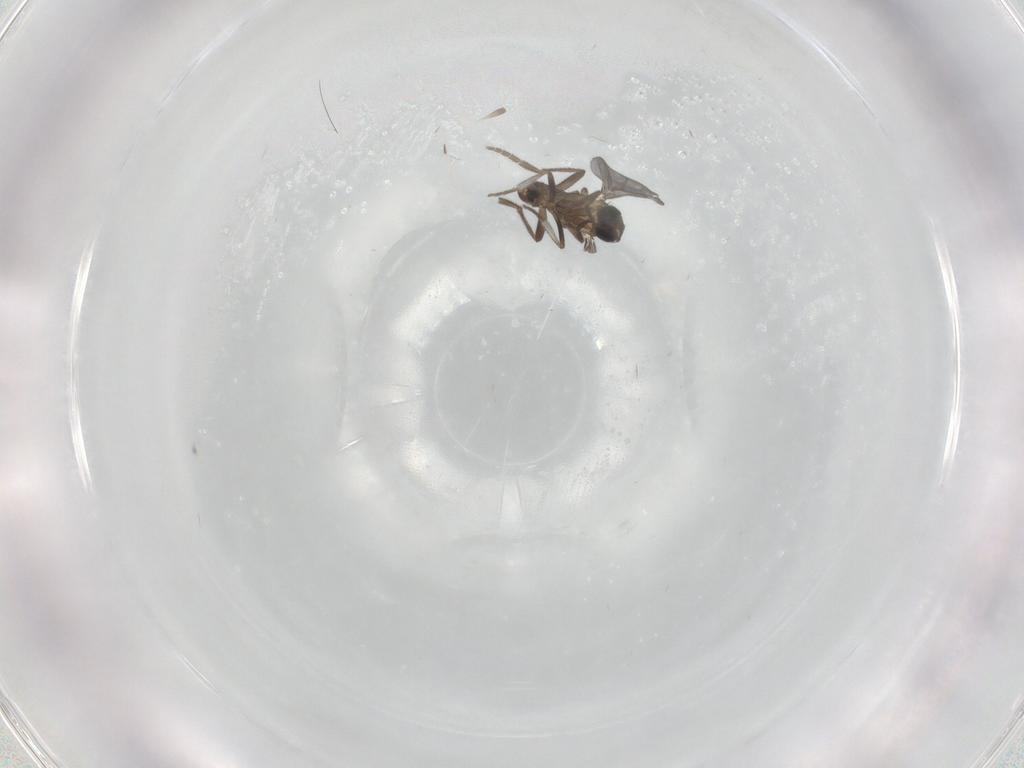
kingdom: Animalia
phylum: Arthropoda
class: Insecta
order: Diptera
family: Phoridae
